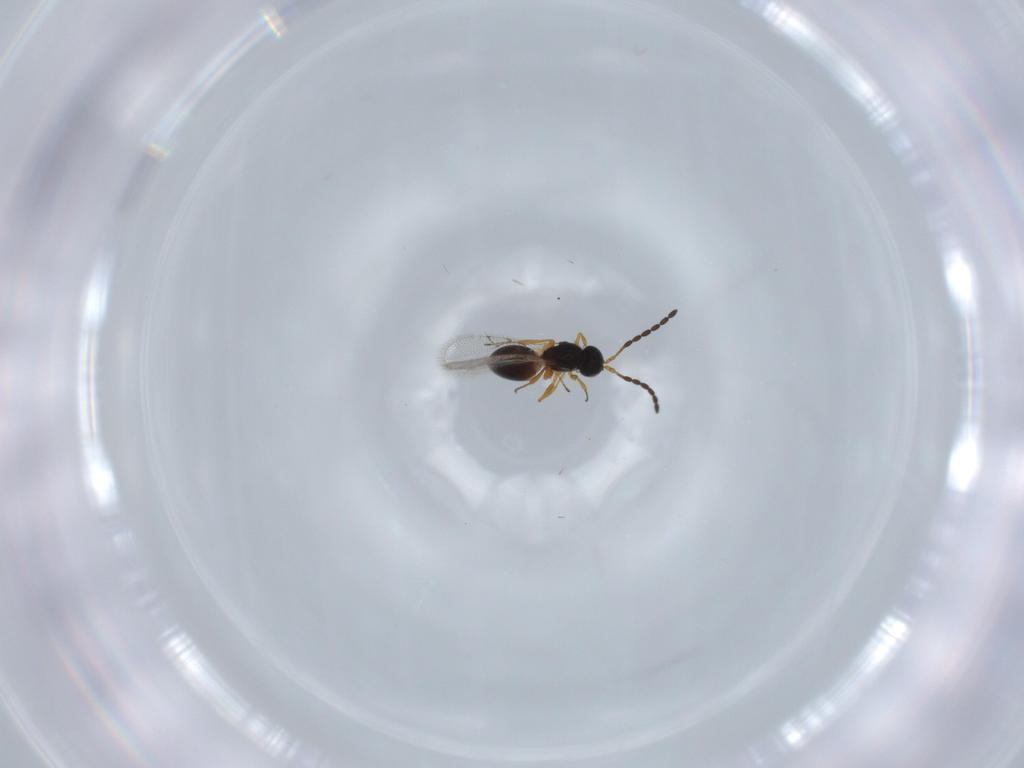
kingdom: Animalia
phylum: Arthropoda
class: Insecta
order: Hymenoptera
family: Figitidae
